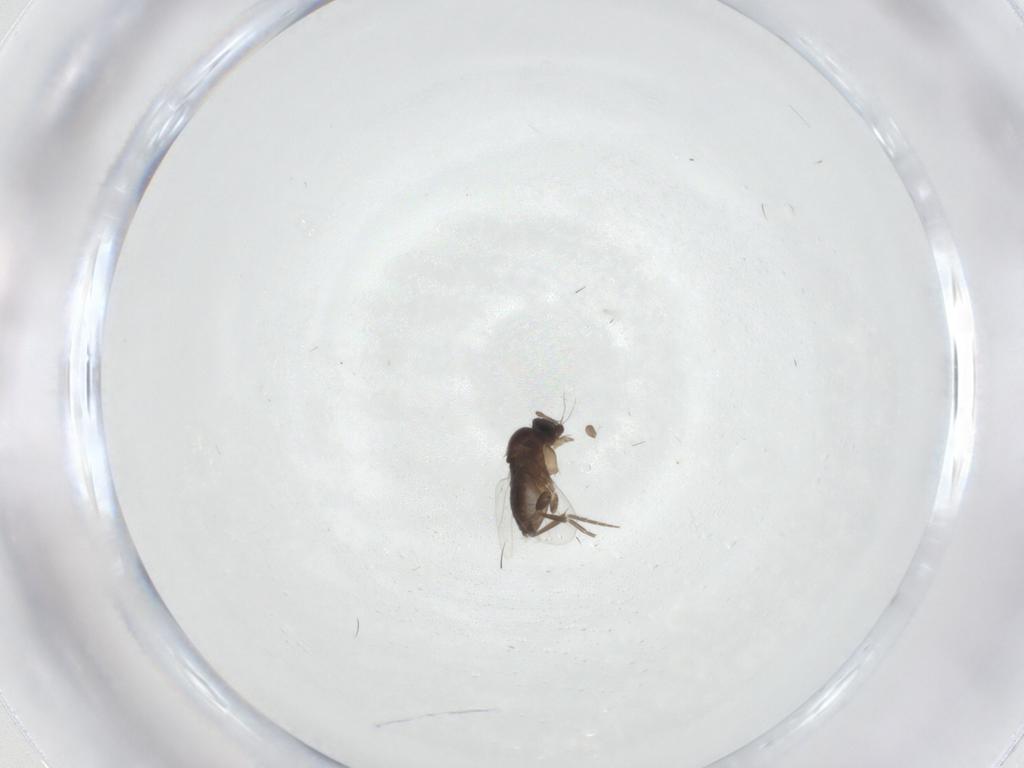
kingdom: Animalia
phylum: Arthropoda
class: Insecta
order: Diptera
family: Phoridae
